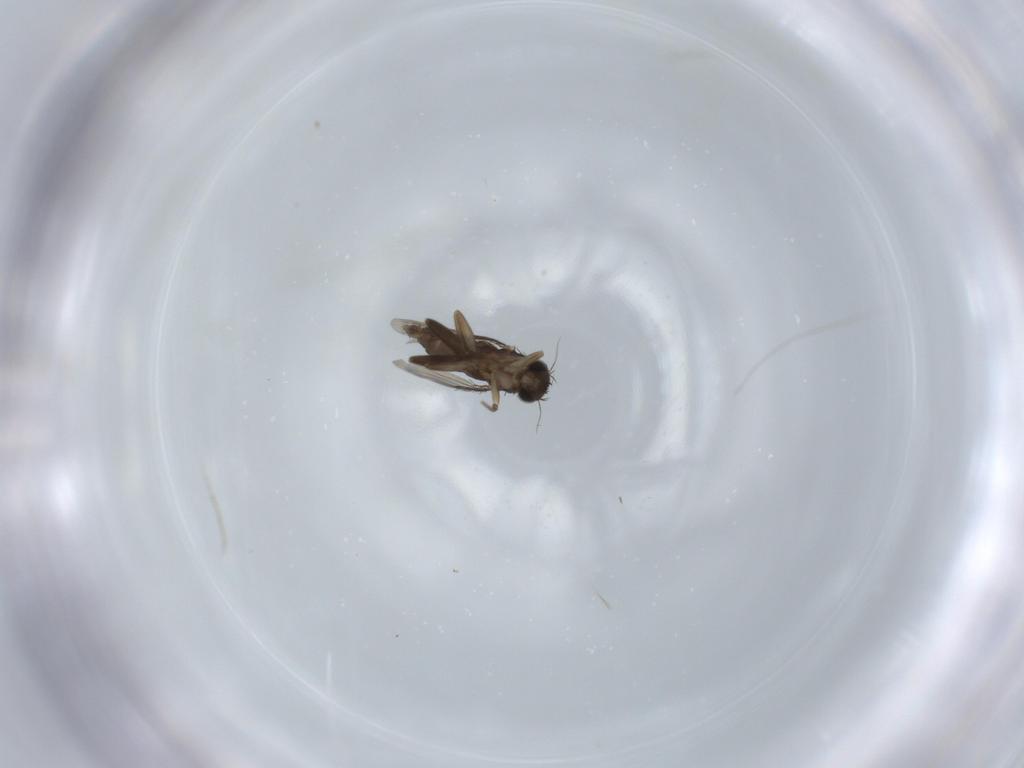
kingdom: Animalia
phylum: Arthropoda
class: Insecta
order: Diptera
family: Phoridae
